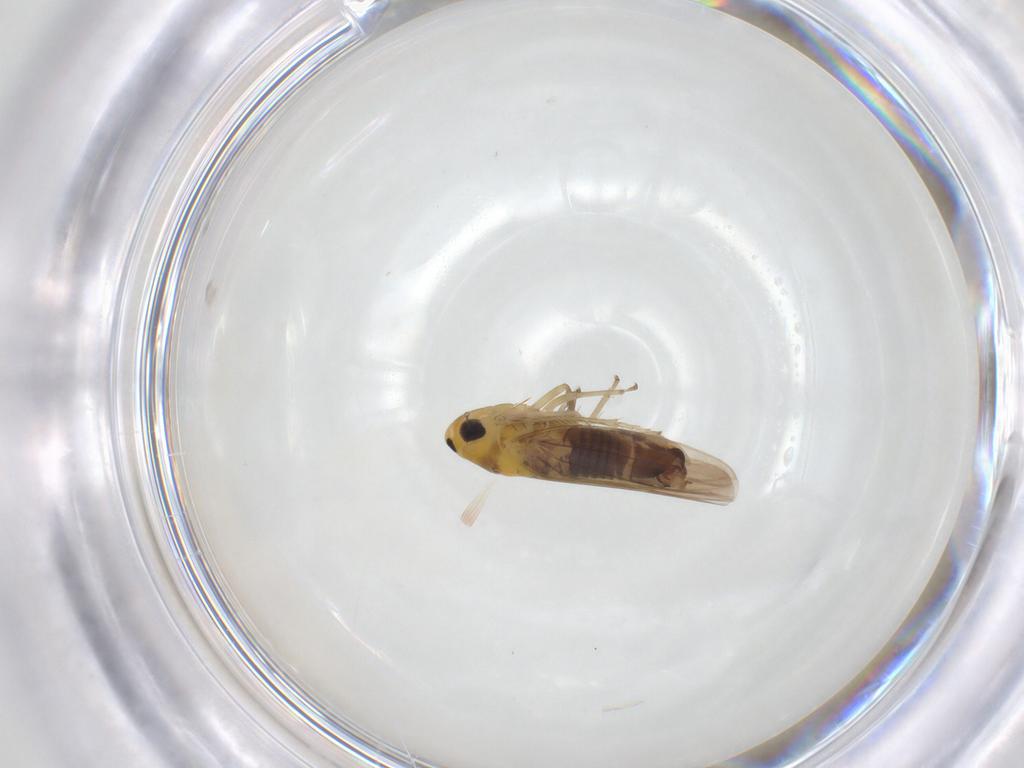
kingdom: Animalia
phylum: Arthropoda
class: Insecta
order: Hemiptera
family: Cicadellidae
